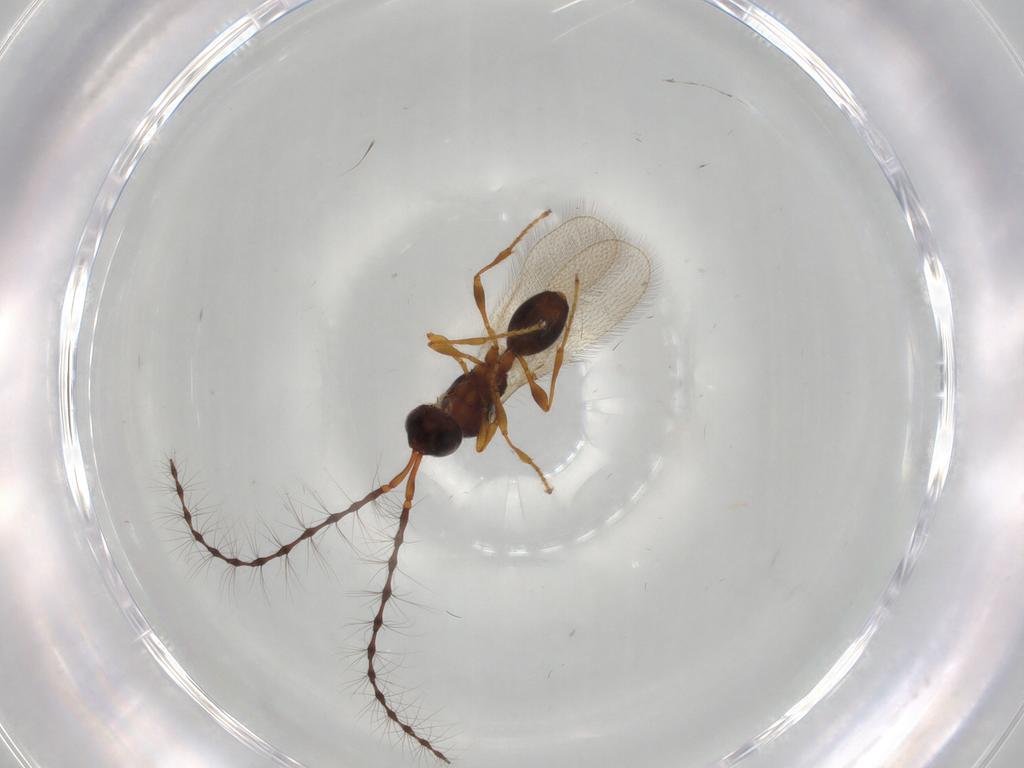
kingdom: Animalia
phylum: Arthropoda
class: Insecta
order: Hymenoptera
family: Diapriidae
